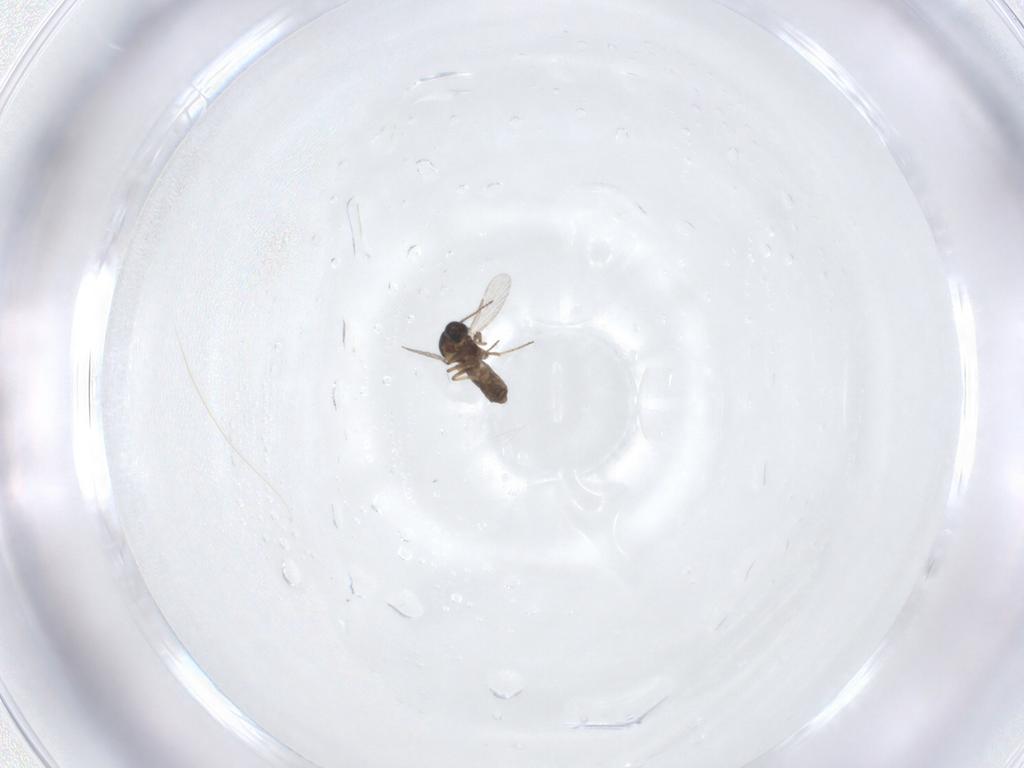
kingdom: Animalia
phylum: Arthropoda
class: Insecta
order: Diptera
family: Ceratopogonidae
